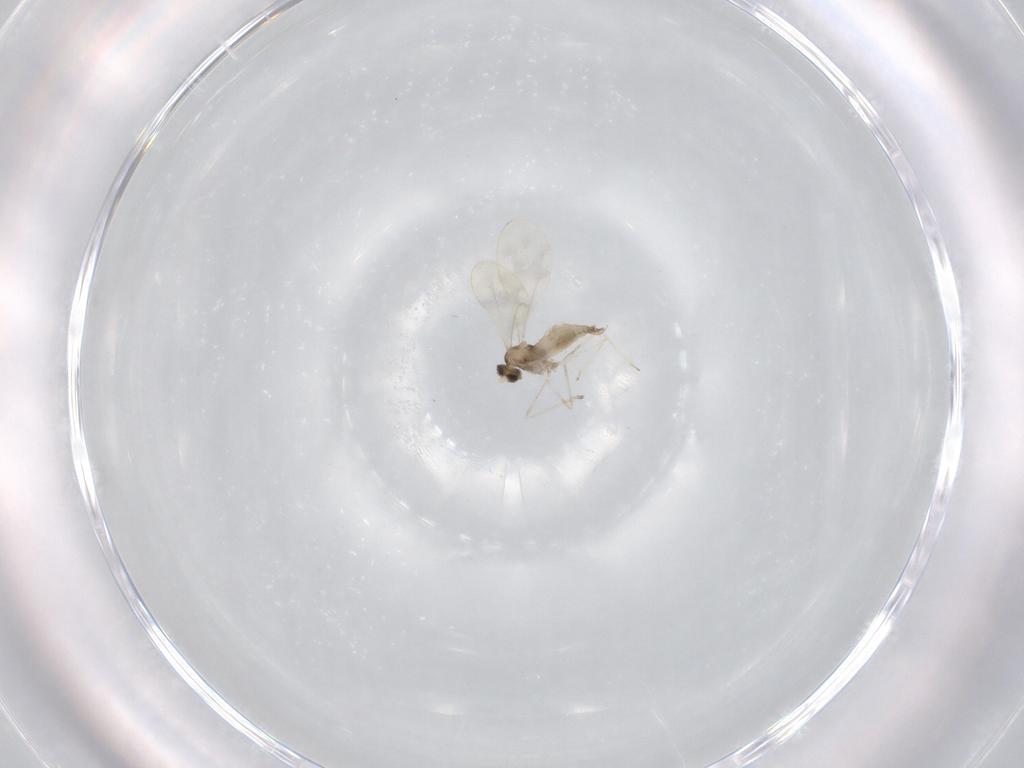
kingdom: Animalia
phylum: Arthropoda
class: Insecta
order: Diptera
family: Cecidomyiidae
